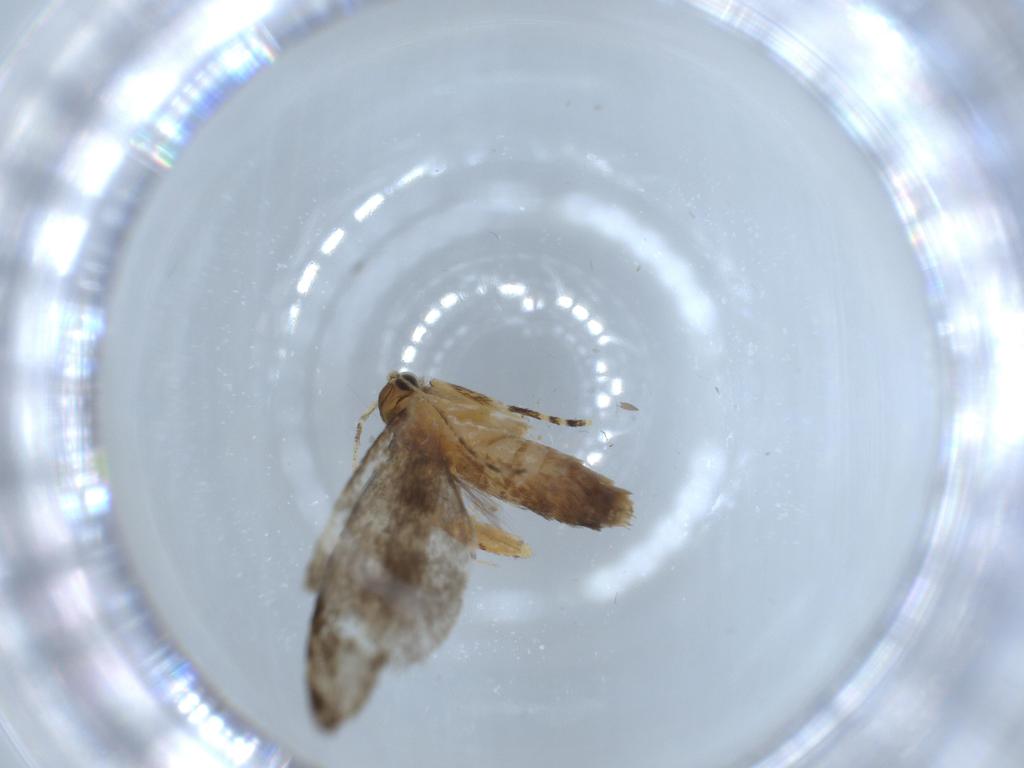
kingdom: Animalia
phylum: Arthropoda
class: Insecta
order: Lepidoptera
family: Tineidae
